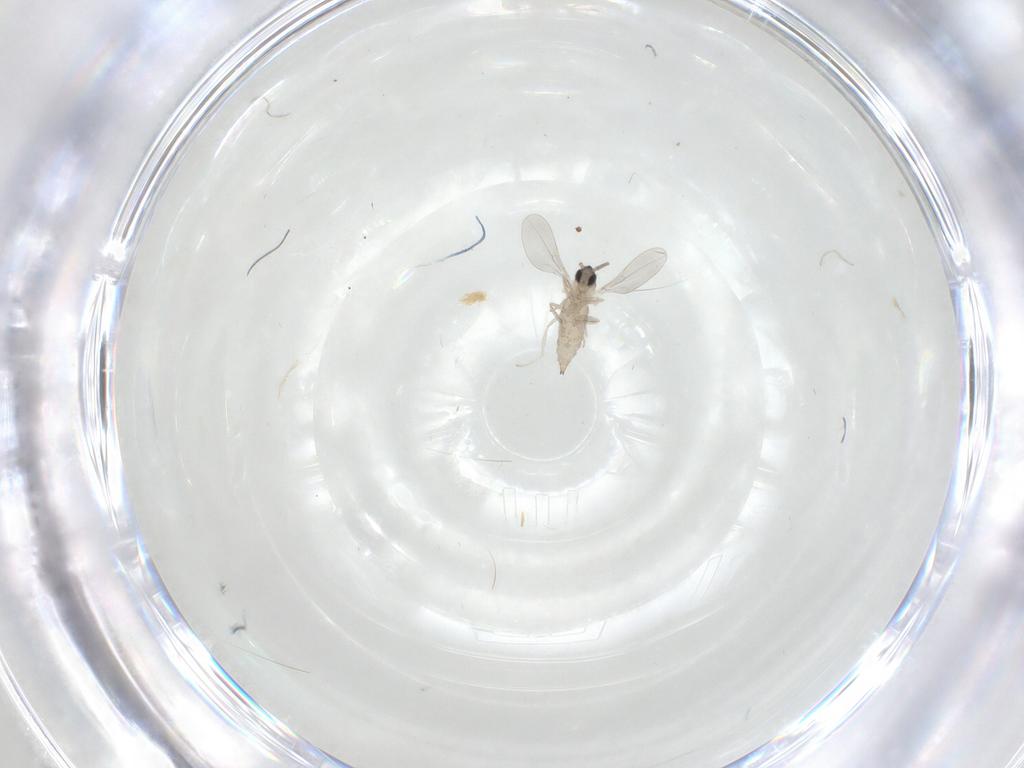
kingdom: Animalia
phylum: Arthropoda
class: Insecta
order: Diptera
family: Cecidomyiidae
